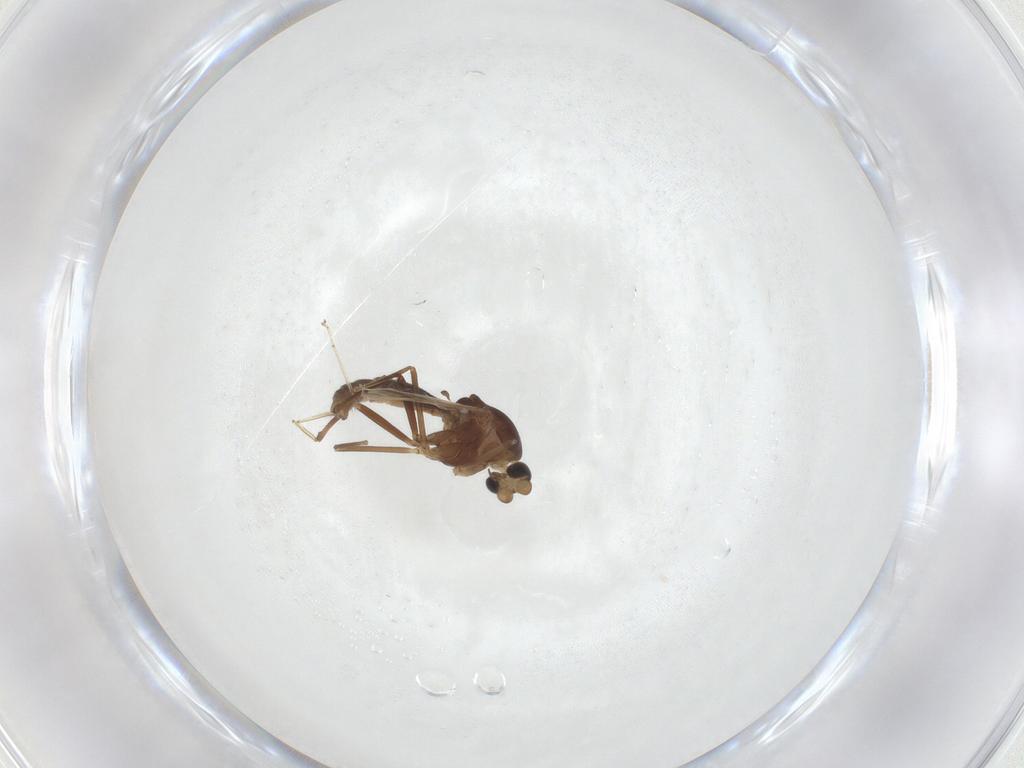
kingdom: Animalia
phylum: Arthropoda
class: Insecta
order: Diptera
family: Ceratopogonidae
